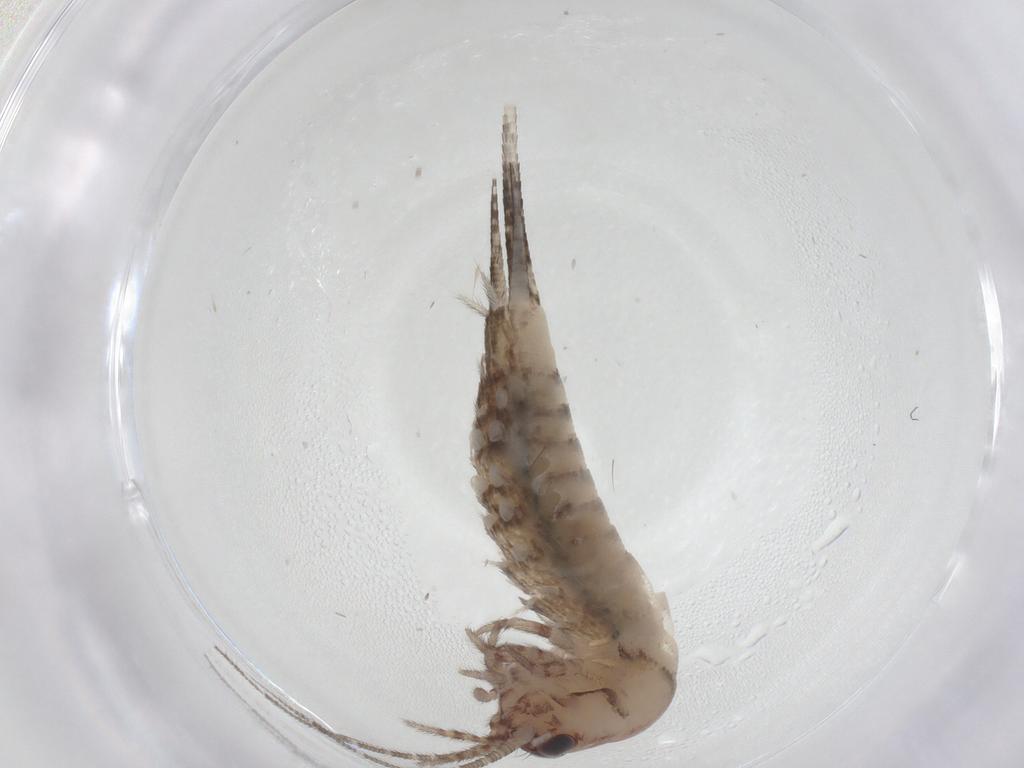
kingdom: Animalia
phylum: Arthropoda
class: Insecta
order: Archaeognatha
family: Meinertellidae
